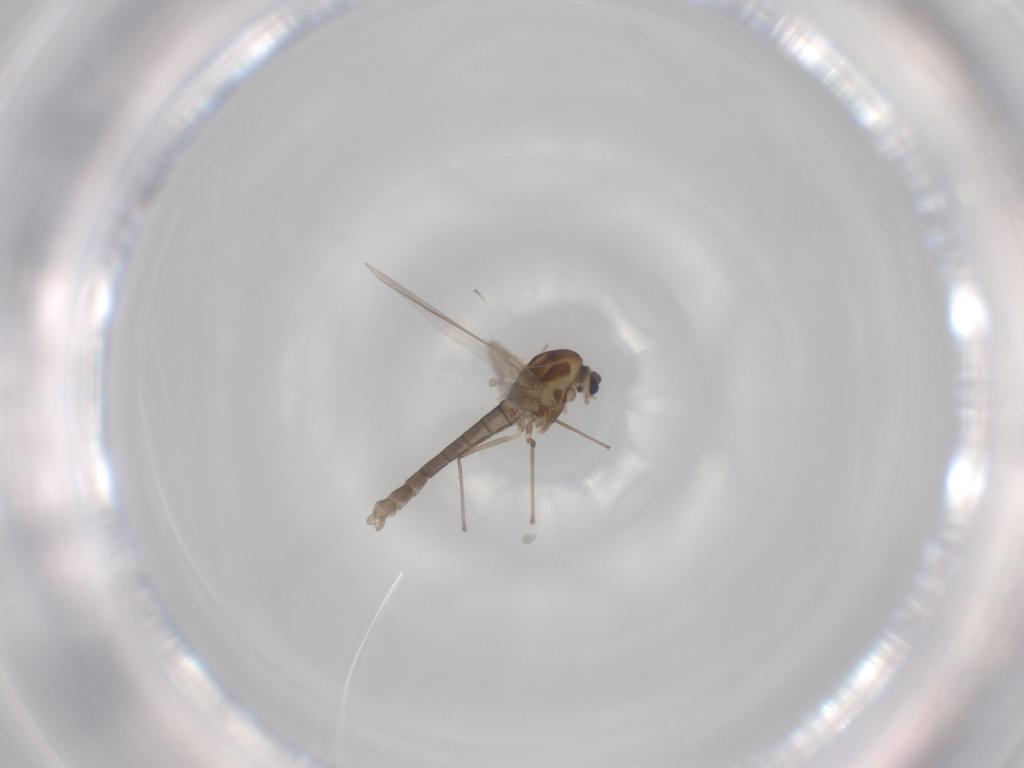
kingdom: Animalia
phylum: Arthropoda
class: Insecta
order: Diptera
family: Chironomidae
